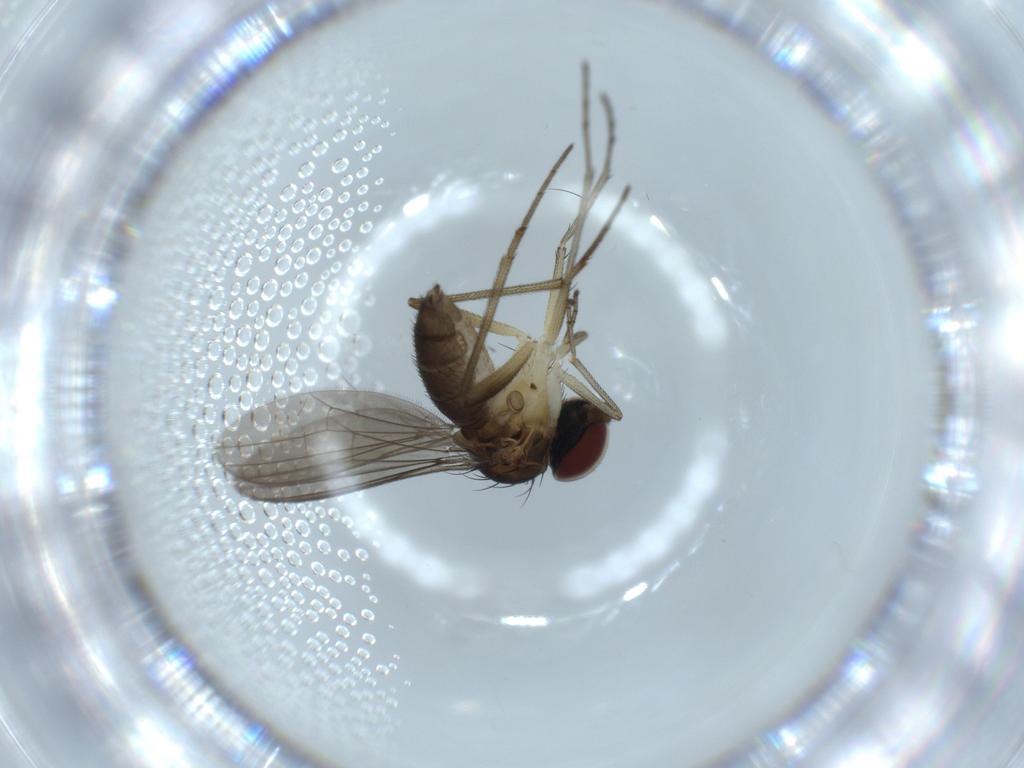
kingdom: Animalia
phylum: Arthropoda
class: Insecta
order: Diptera
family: Dolichopodidae
